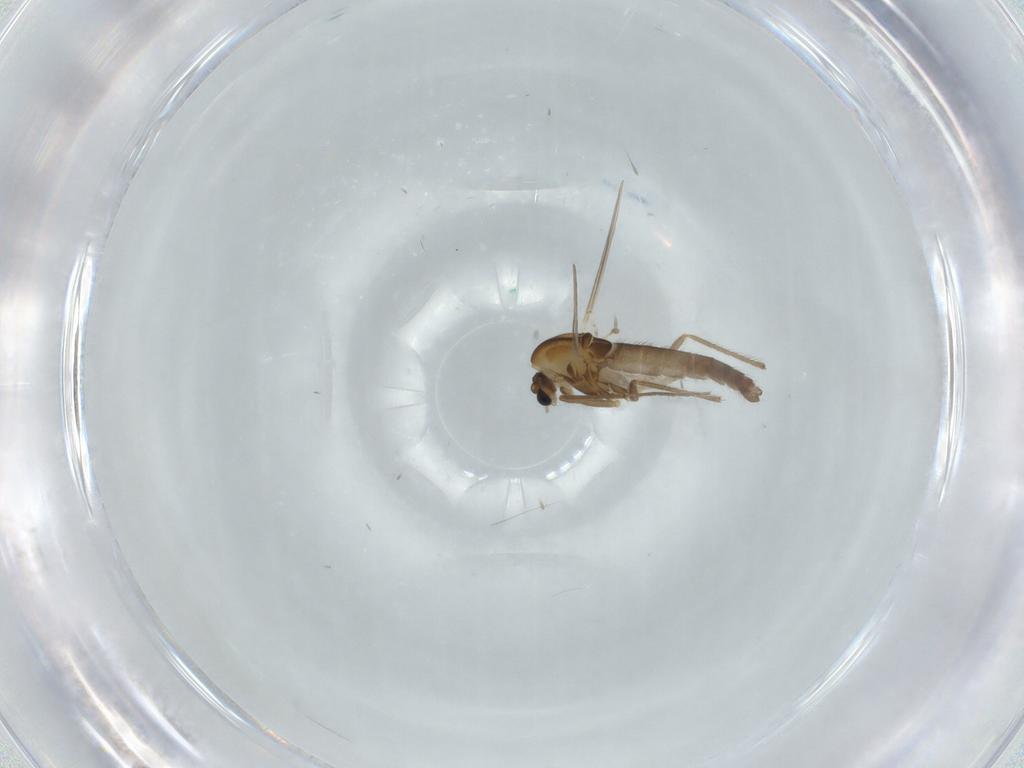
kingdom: Animalia
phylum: Arthropoda
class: Insecta
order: Diptera
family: Chironomidae
